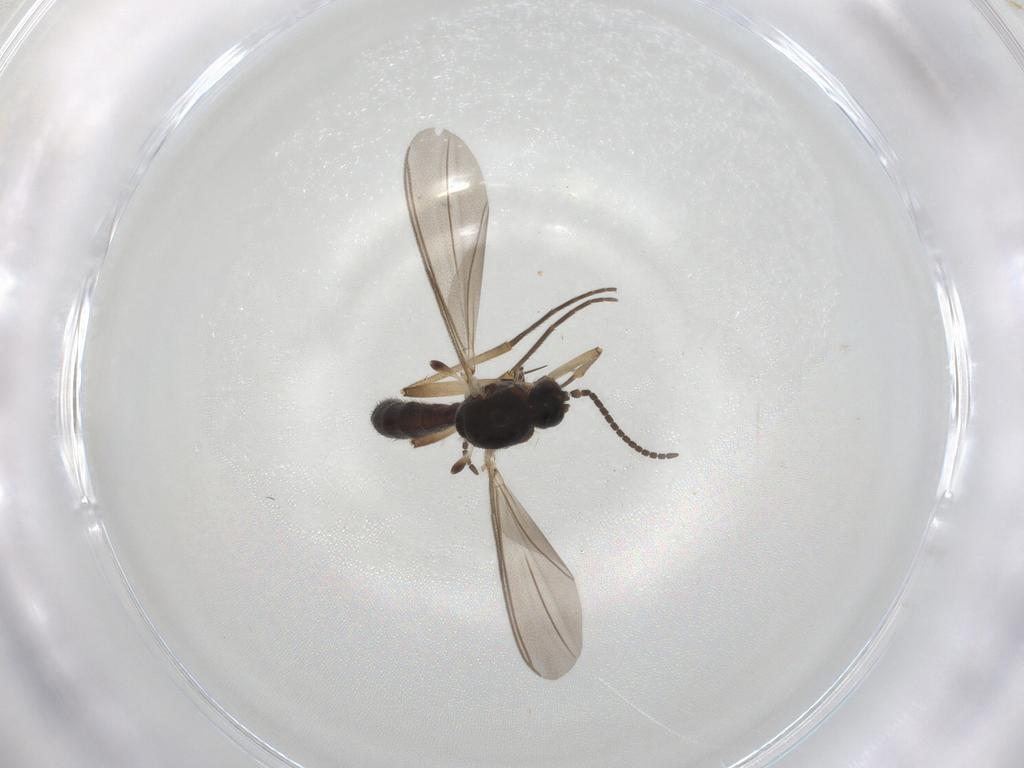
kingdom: Animalia
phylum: Arthropoda
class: Insecta
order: Diptera
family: Mycetophilidae
